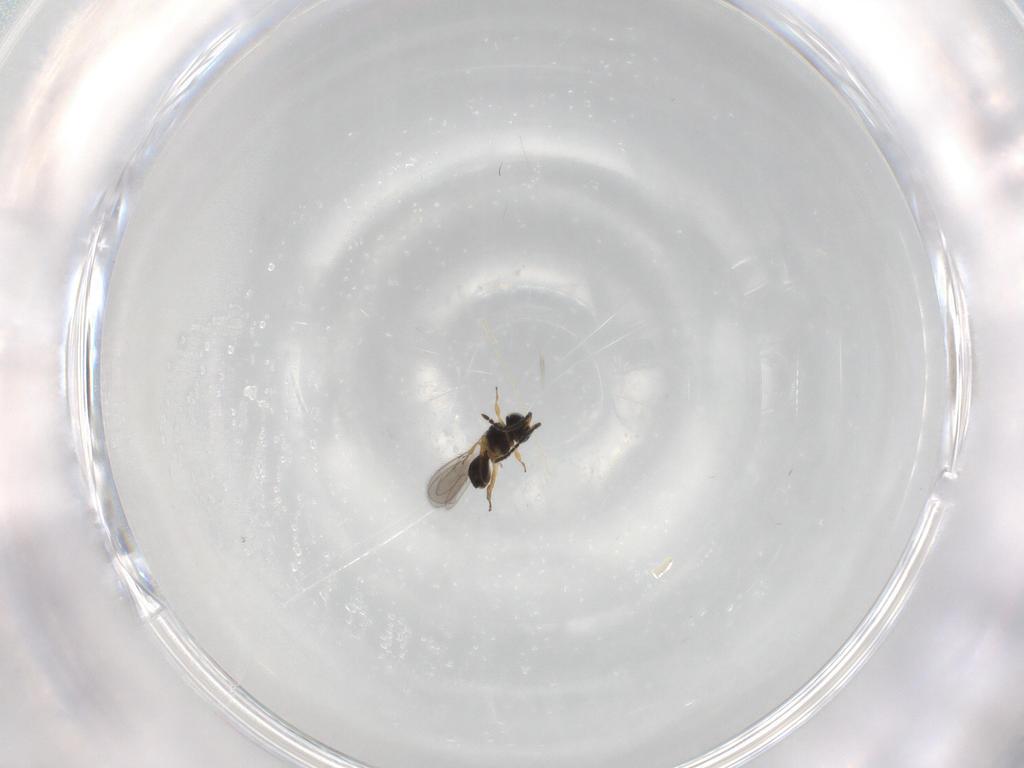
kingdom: Animalia
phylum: Arthropoda
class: Insecta
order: Hymenoptera
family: Scelionidae
